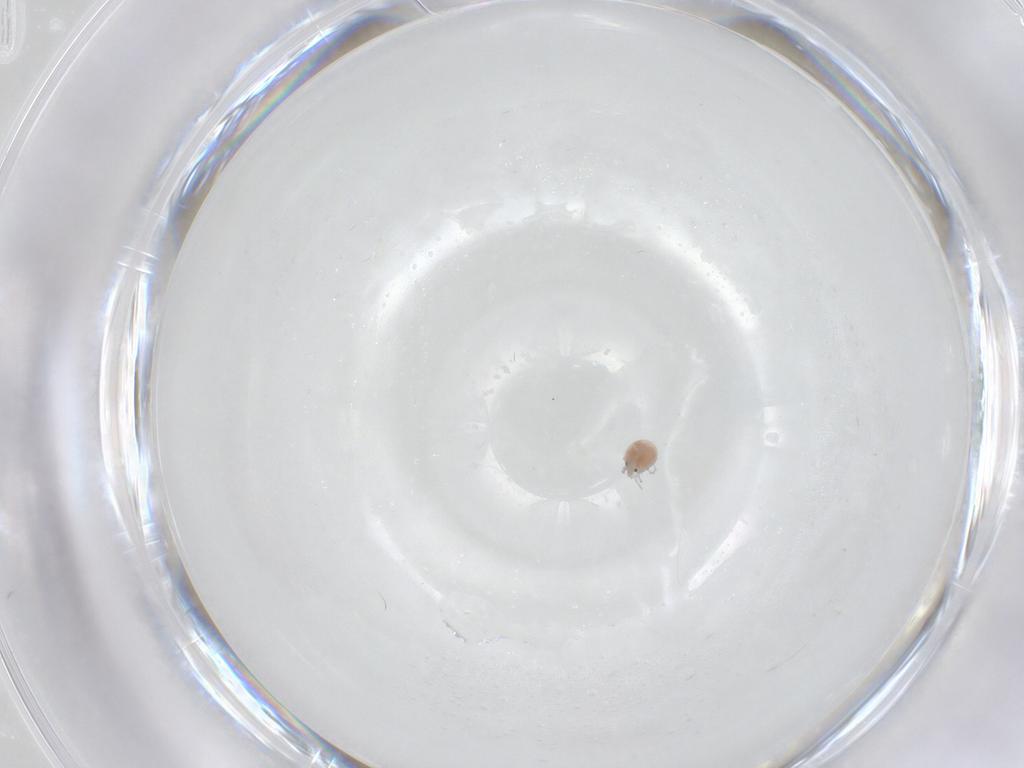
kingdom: Animalia
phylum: Arthropoda
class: Arachnida
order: Trombidiformes
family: Pionidae
